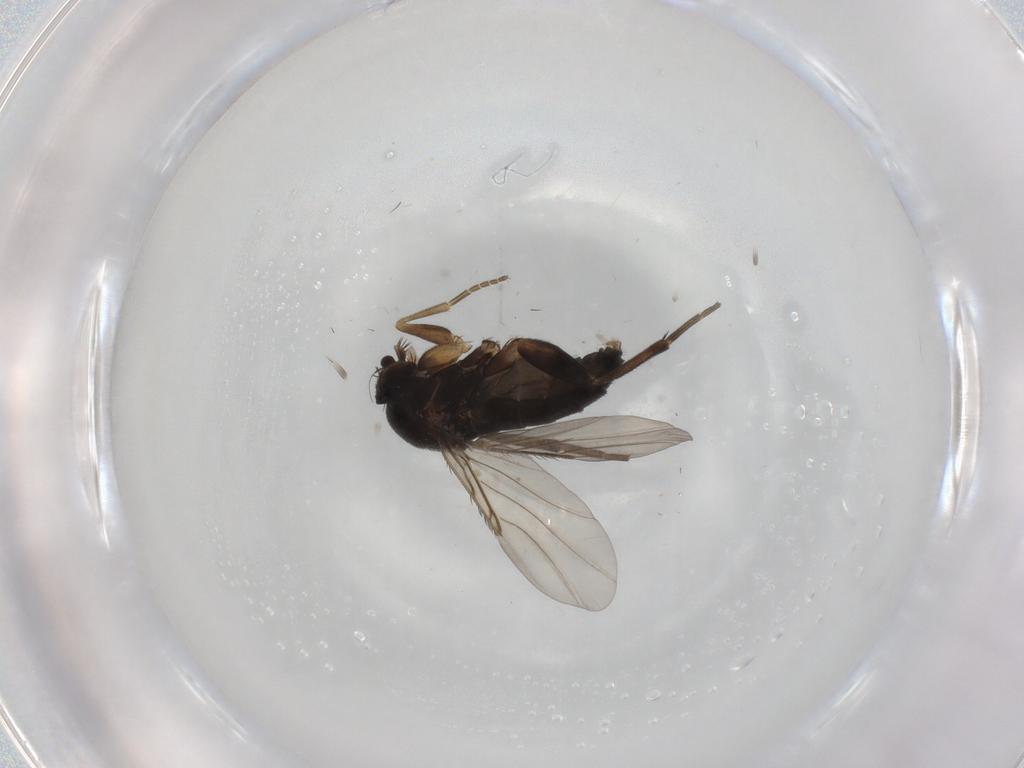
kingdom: Animalia
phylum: Arthropoda
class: Insecta
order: Diptera
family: Phoridae
